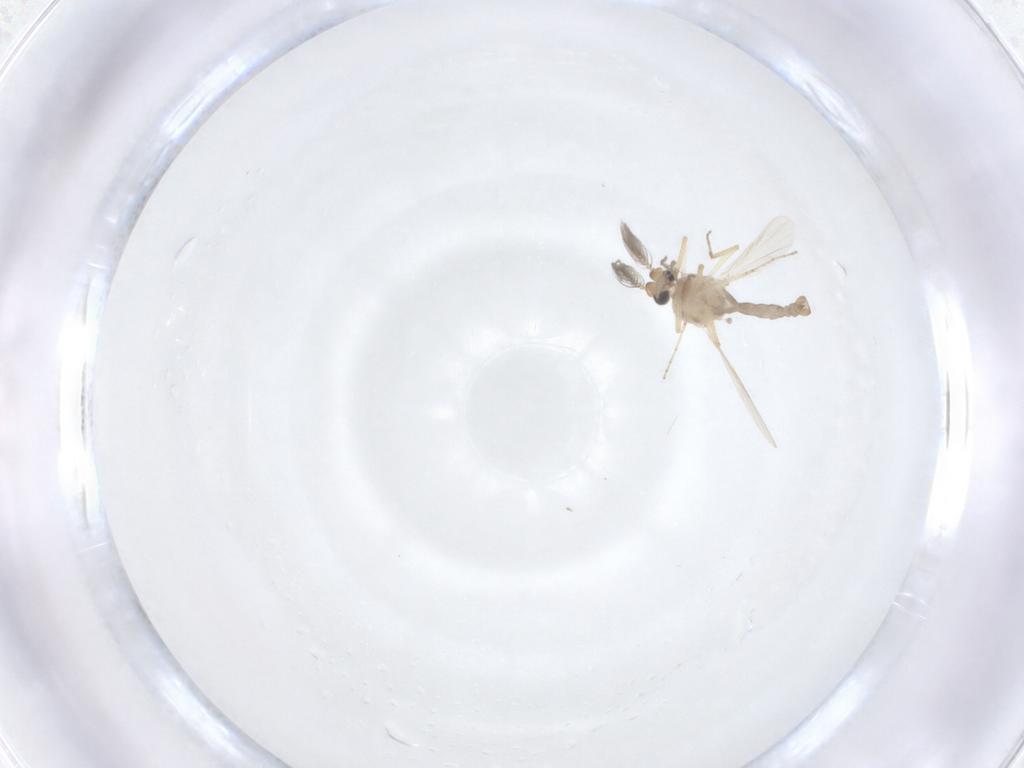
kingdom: Animalia
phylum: Arthropoda
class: Insecta
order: Diptera
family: Ceratopogonidae
